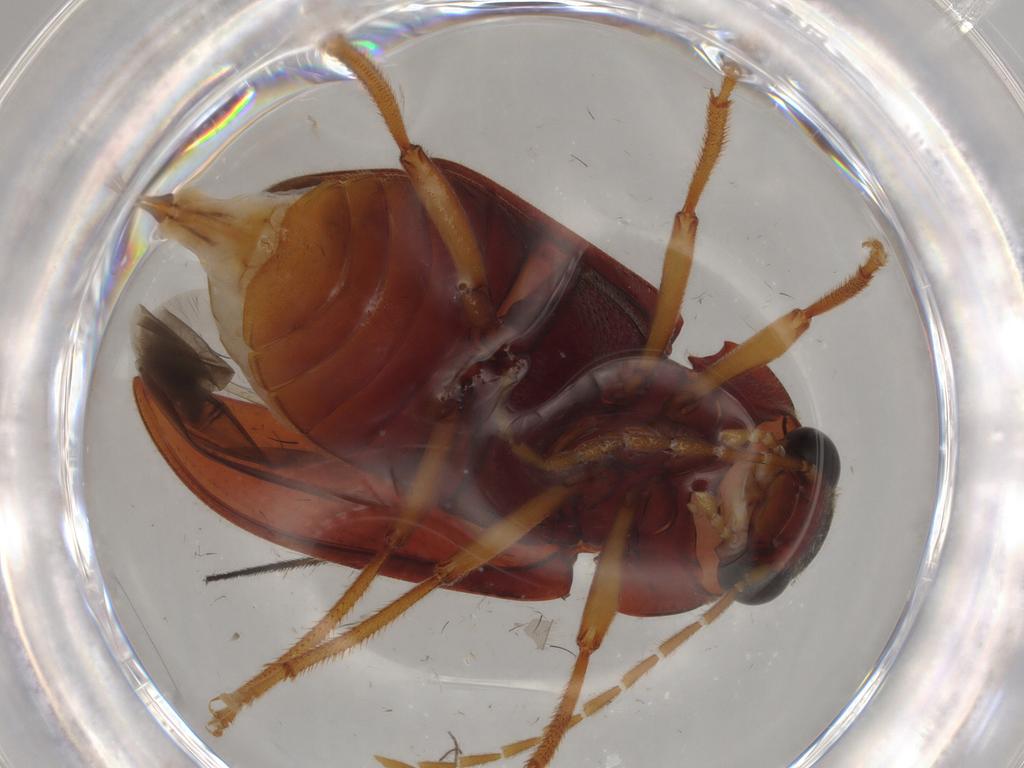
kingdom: Animalia
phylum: Arthropoda
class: Insecta
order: Coleoptera
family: Ptilodactylidae
